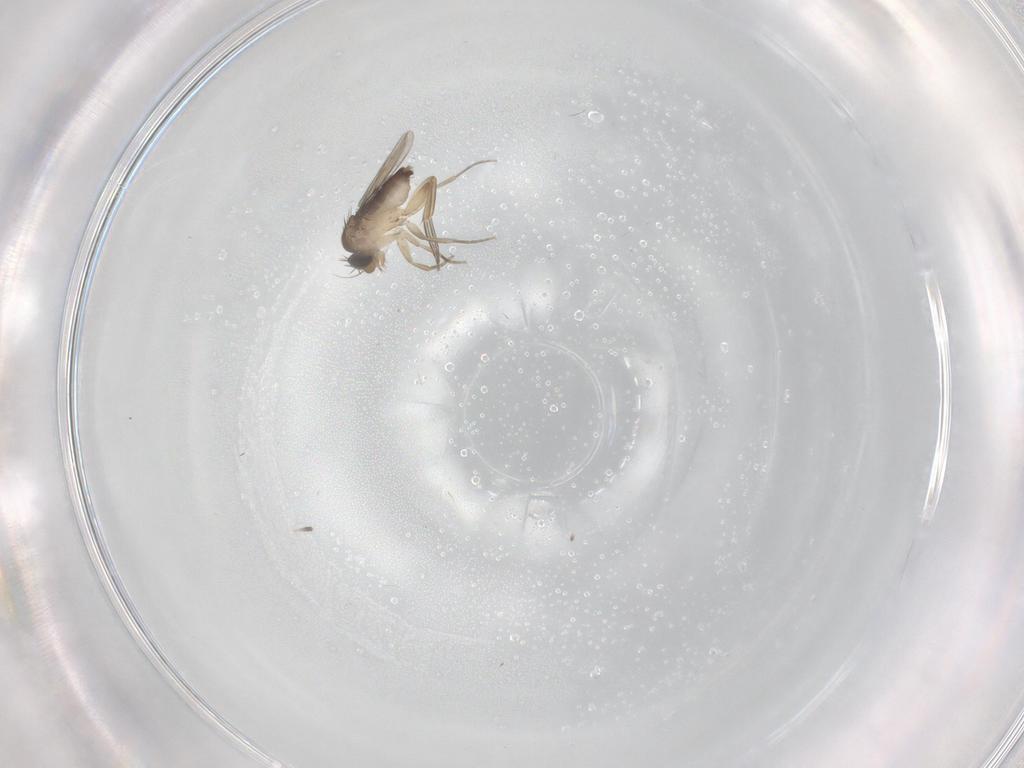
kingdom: Animalia
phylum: Arthropoda
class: Insecta
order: Diptera
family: Phoridae
